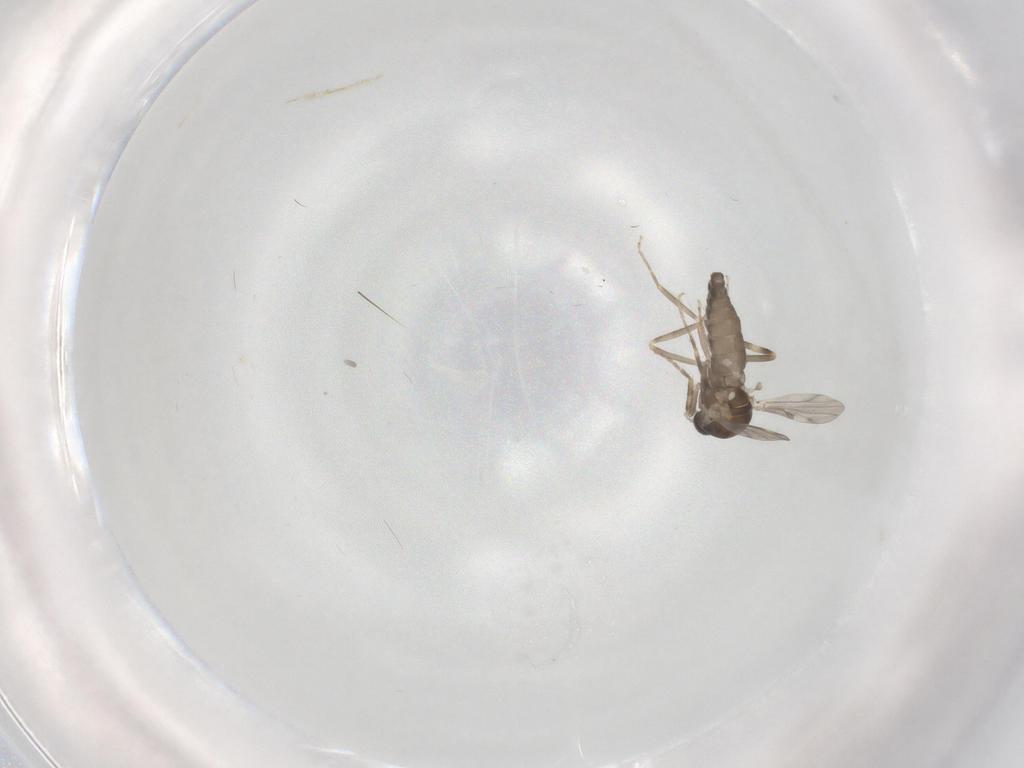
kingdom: Animalia
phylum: Arthropoda
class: Insecta
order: Diptera
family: Ceratopogonidae
